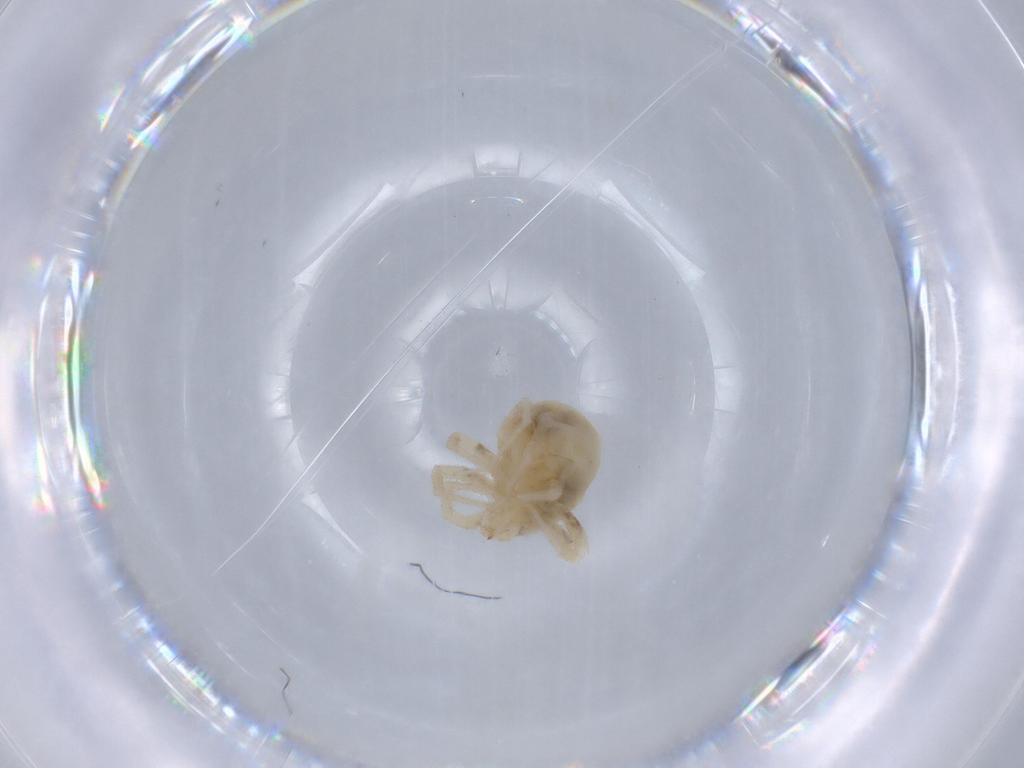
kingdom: Animalia
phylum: Arthropoda
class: Arachnida
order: Trombidiformes
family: Anystidae
